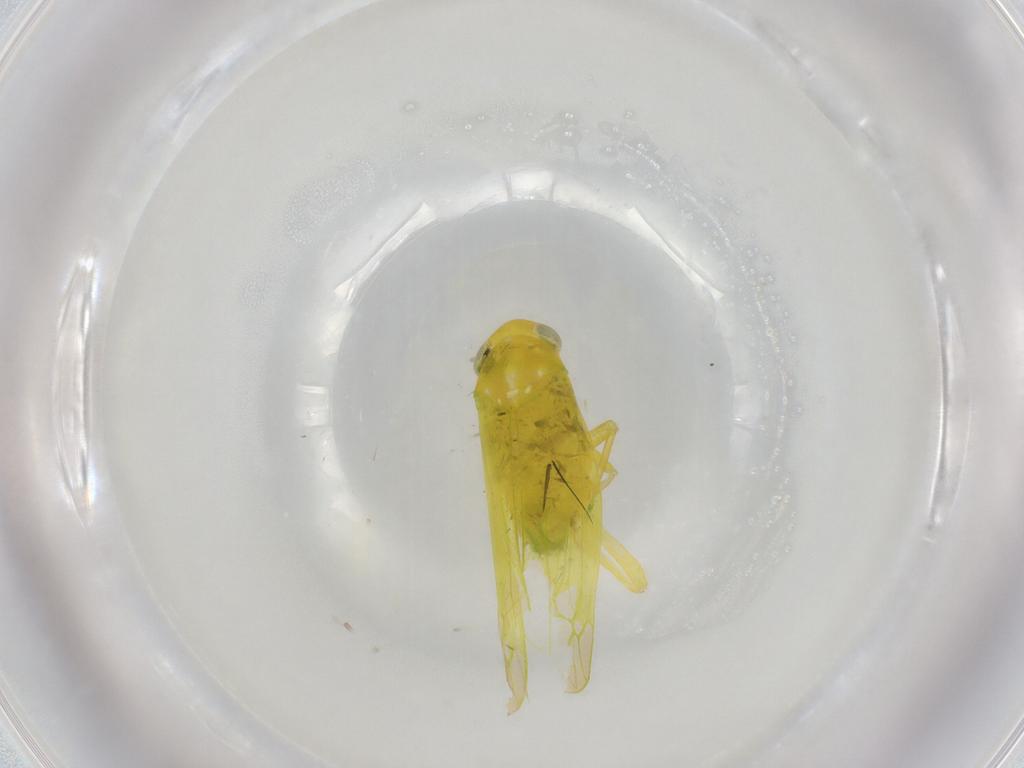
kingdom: Animalia
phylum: Arthropoda
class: Insecta
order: Hemiptera
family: Cicadellidae
